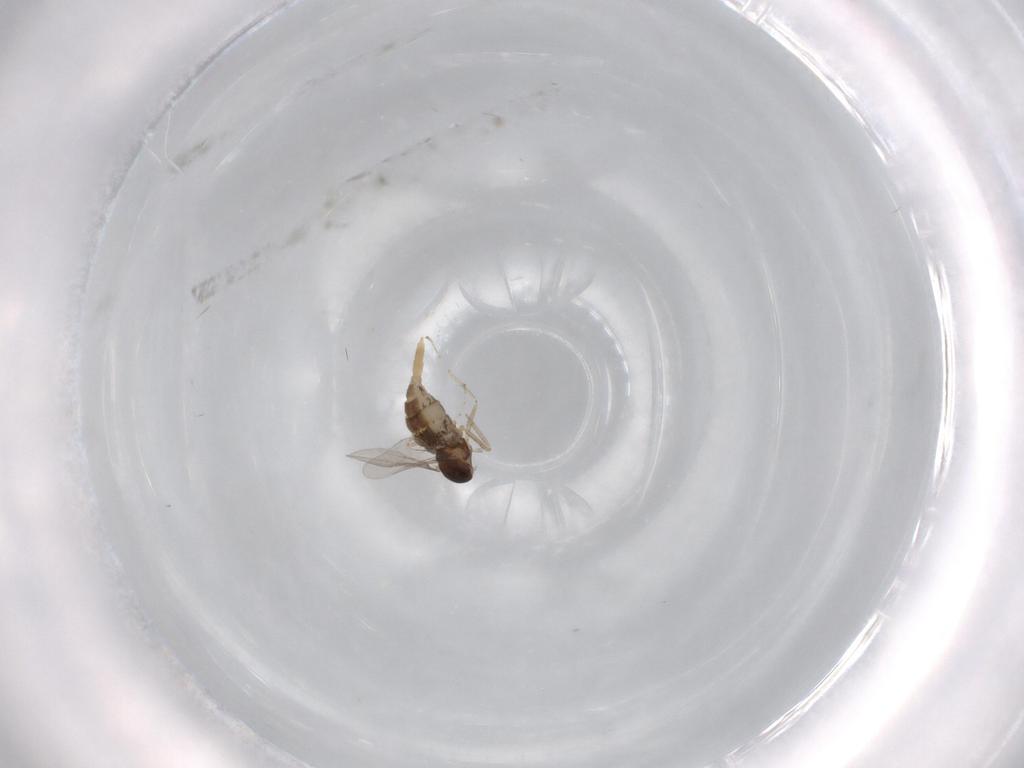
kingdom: Animalia
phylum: Arthropoda
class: Insecta
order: Diptera
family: Cecidomyiidae
